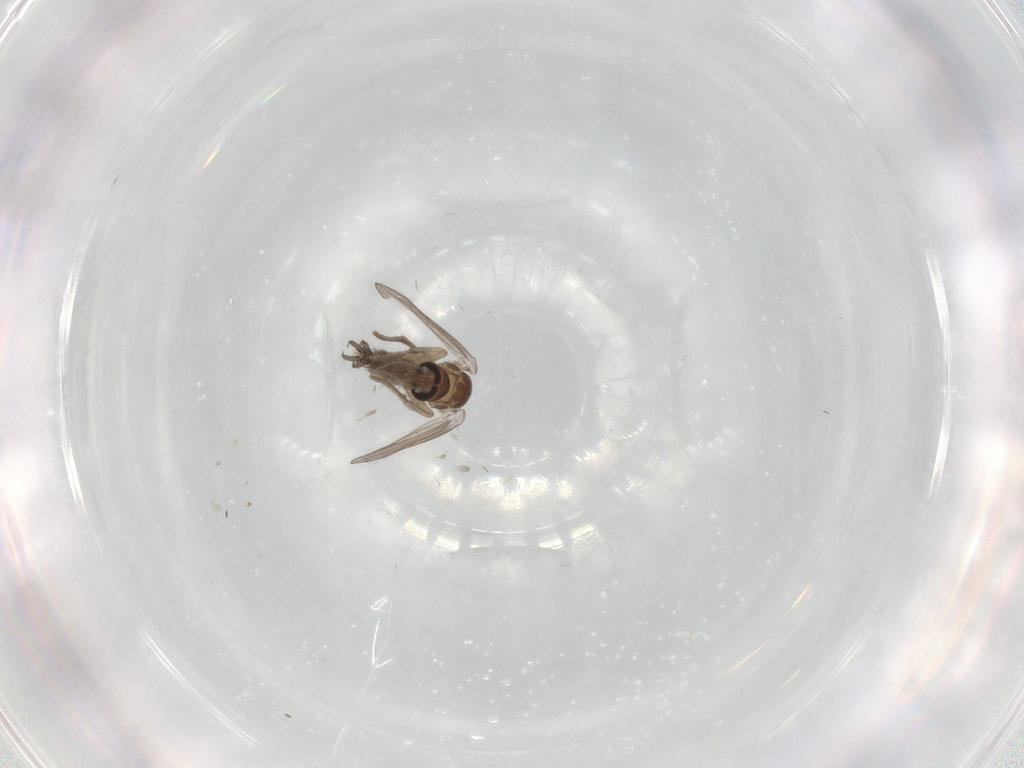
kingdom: Animalia
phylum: Arthropoda
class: Insecta
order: Diptera
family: Psychodidae
